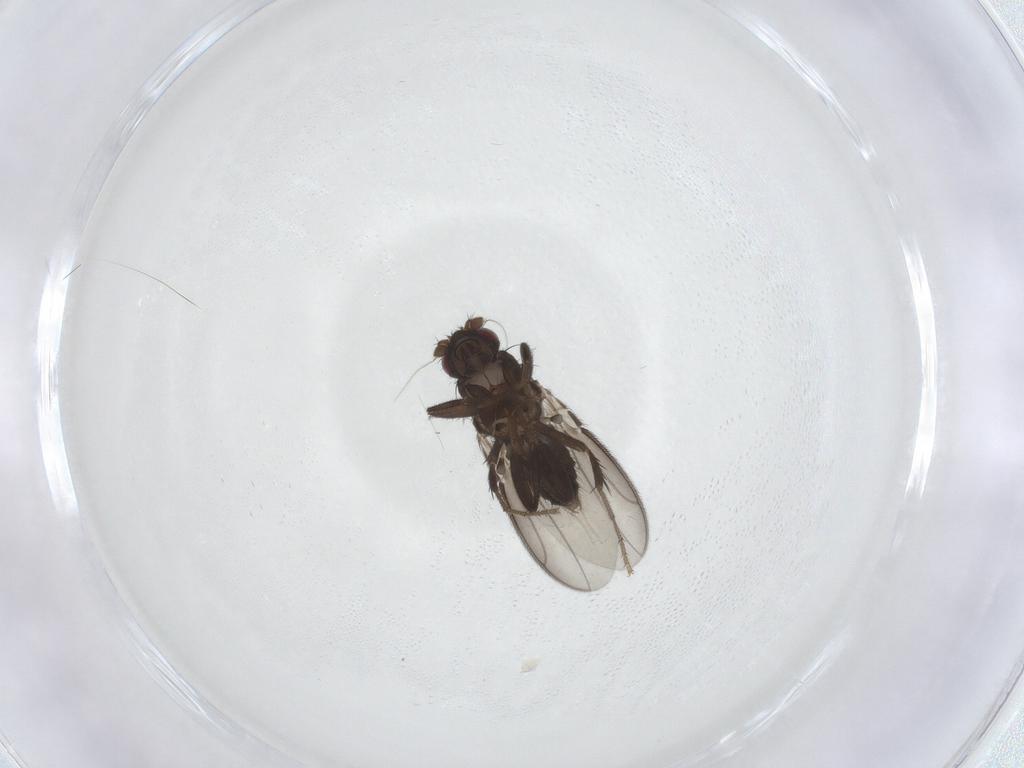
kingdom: Animalia
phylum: Arthropoda
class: Insecta
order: Diptera
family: Sphaeroceridae
